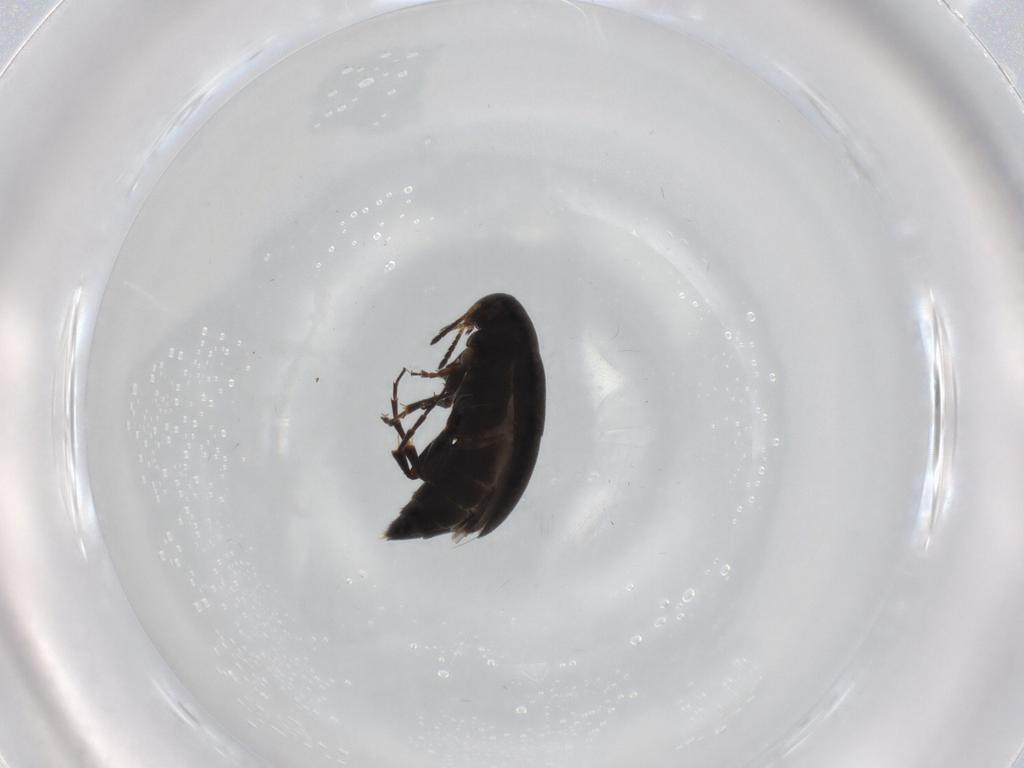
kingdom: Animalia
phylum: Arthropoda
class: Insecta
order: Coleoptera
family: Scraptiidae
